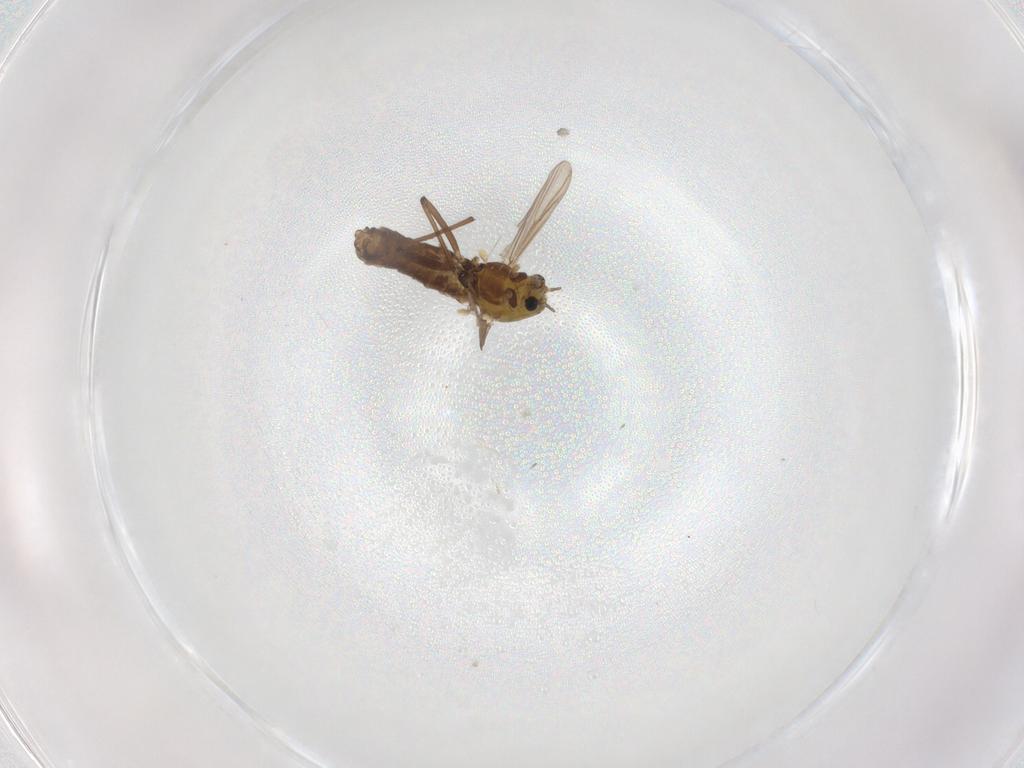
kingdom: Animalia
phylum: Arthropoda
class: Insecta
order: Diptera
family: Chironomidae
